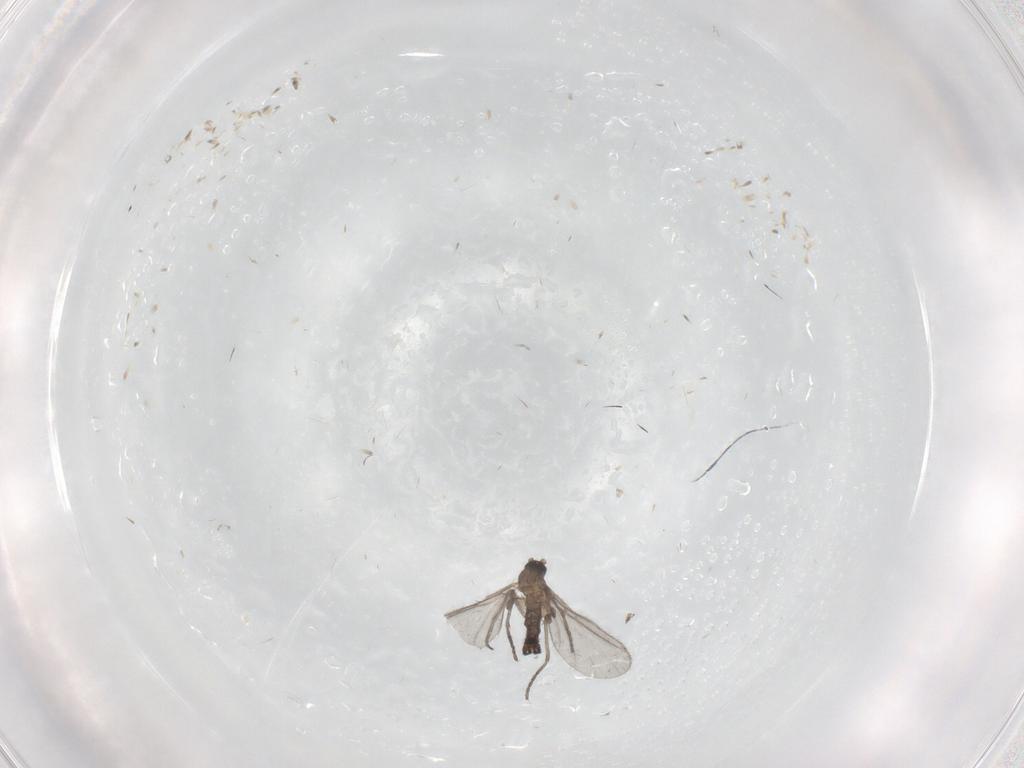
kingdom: Animalia
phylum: Arthropoda
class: Insecta
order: Diptera
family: Sciaridae
